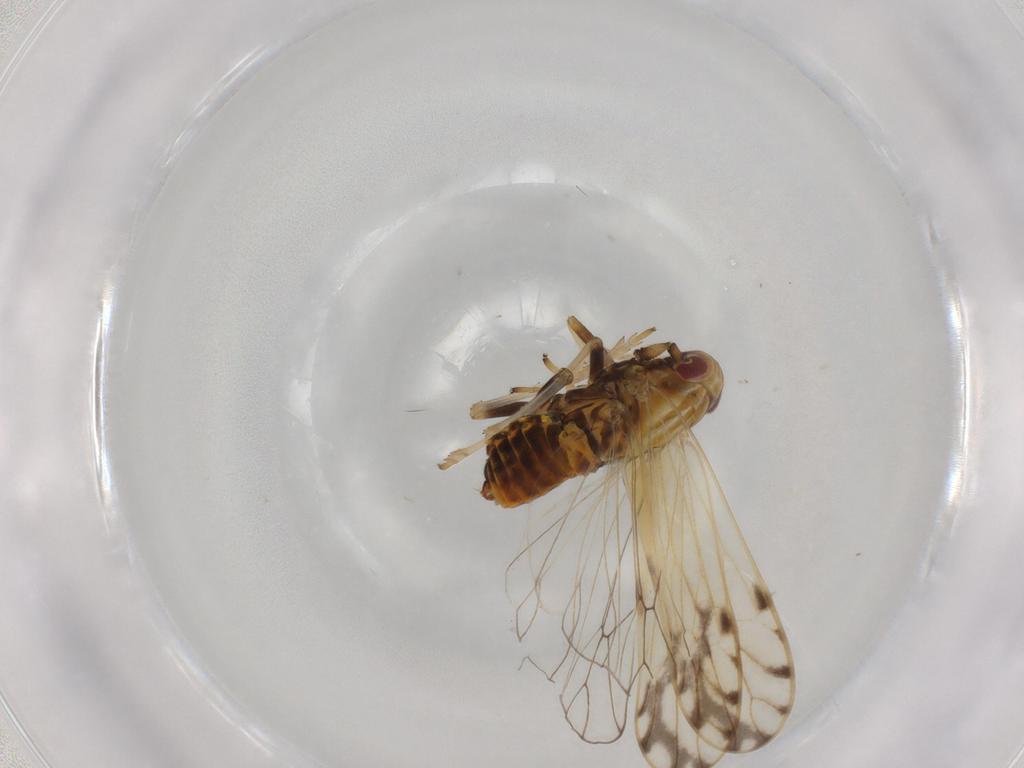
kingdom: Animalia
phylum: Arthropoda
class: Insecta
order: Hemiptera
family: Delphacidae
